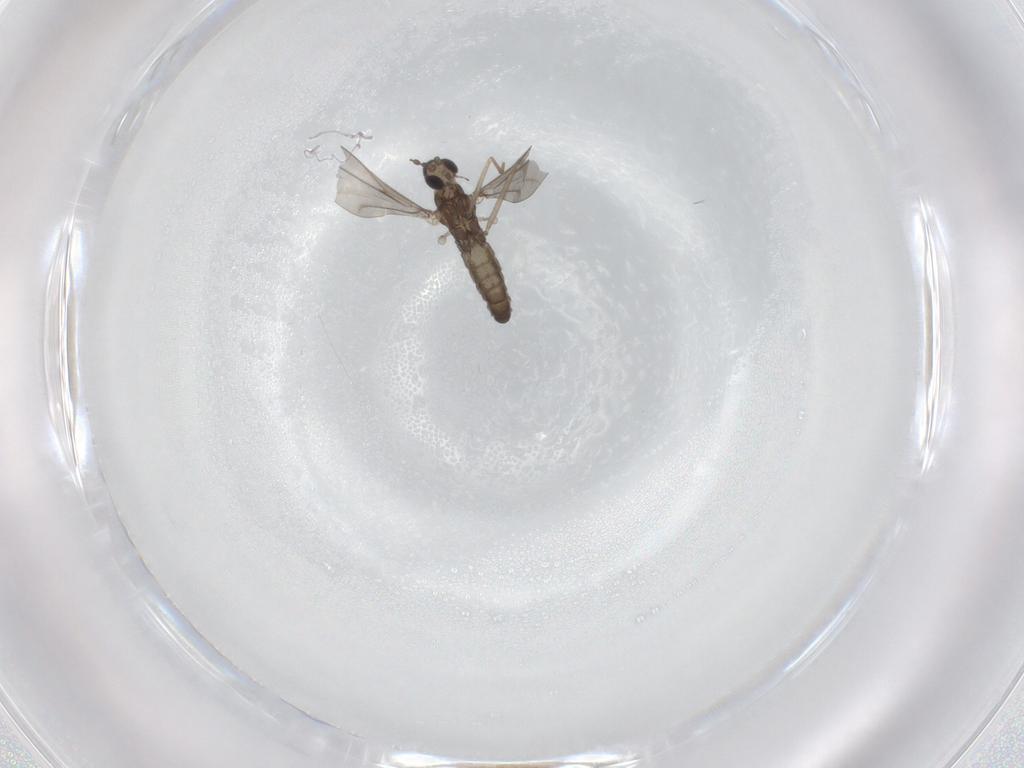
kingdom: Animalia
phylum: Arthropoda
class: Insecta
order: Diptera
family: Cecidomyiidae
